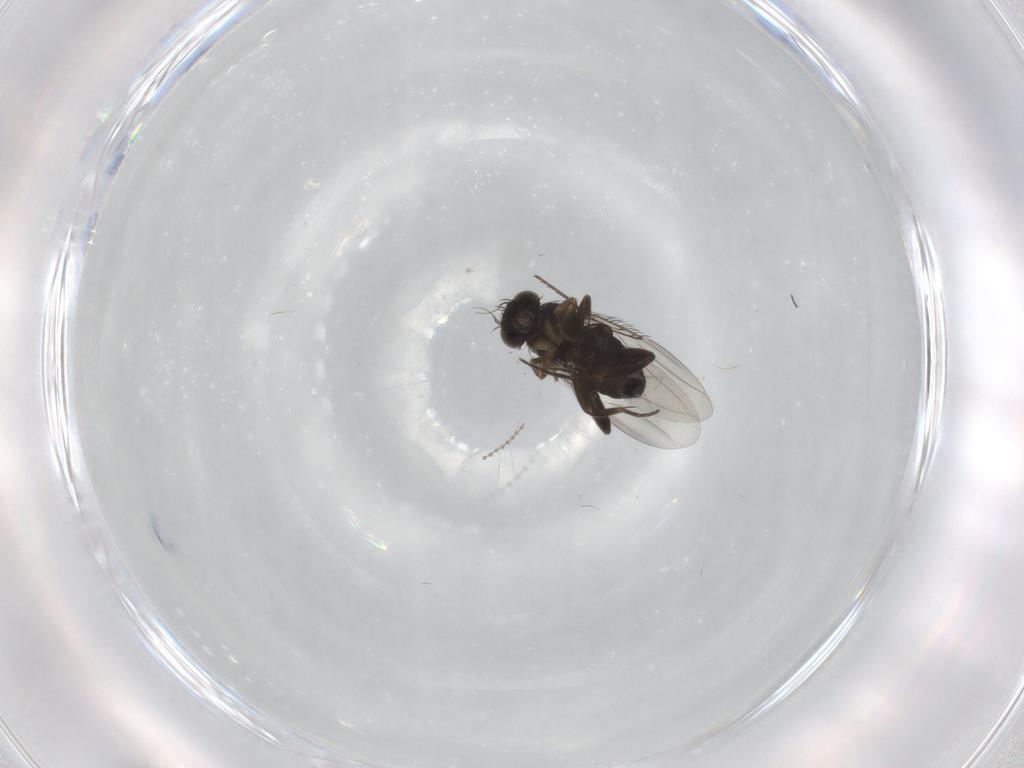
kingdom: Animalia
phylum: Arthropoda
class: Insecta
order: Diptera
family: Phoridae
